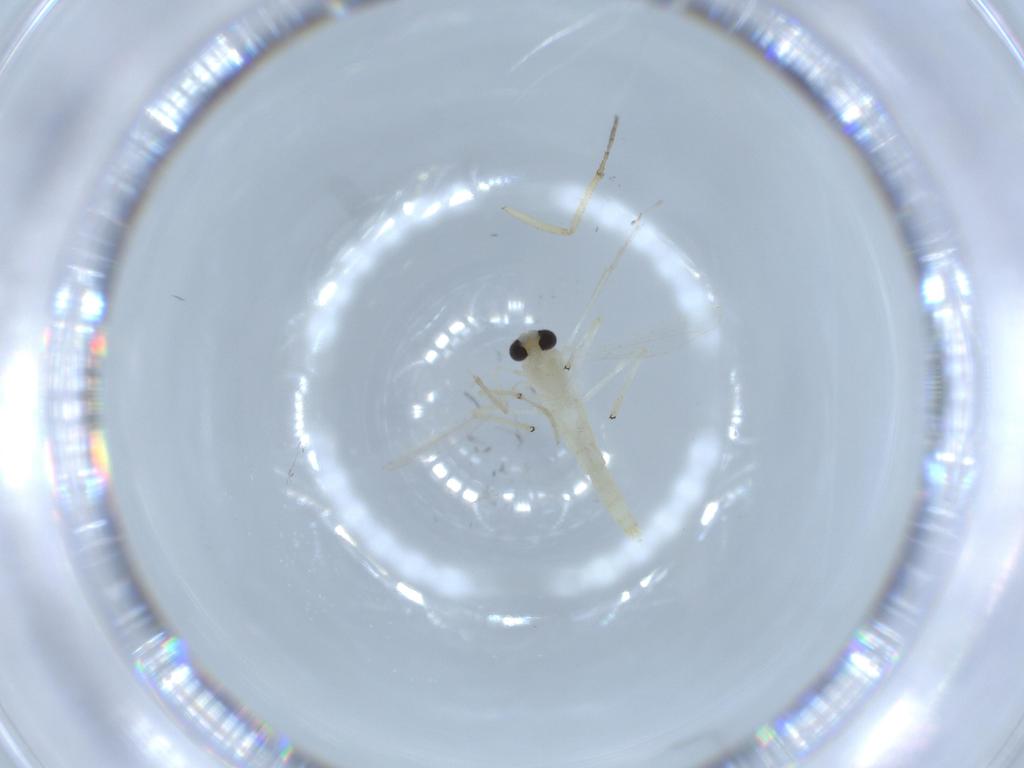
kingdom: Animalia
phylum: Arthropoda
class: Insecta
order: Diptera
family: Chironomidae
